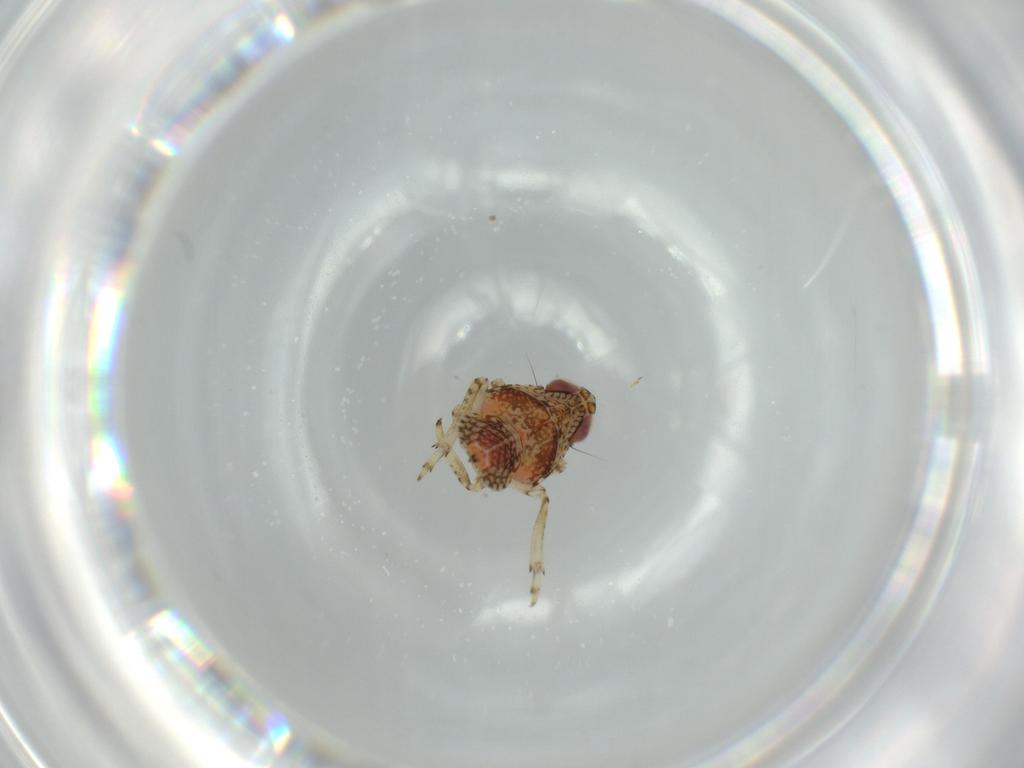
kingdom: Animalia
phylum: Arthropoda
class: Insecta
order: Hemiptera
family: Issidae
